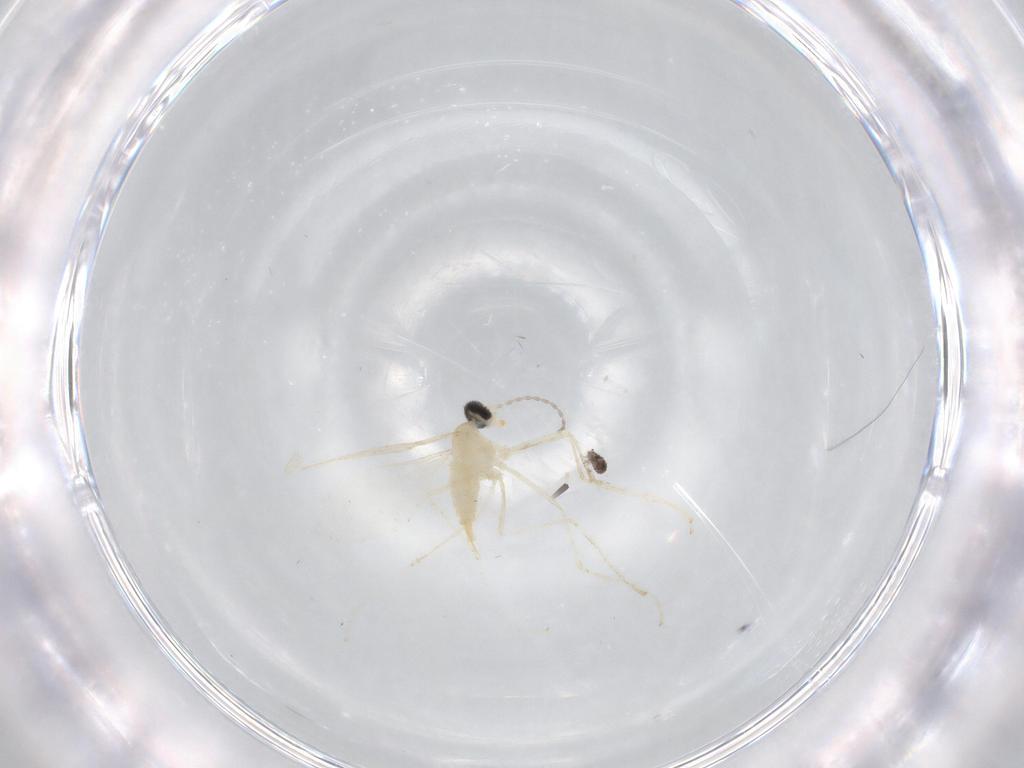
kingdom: Animalia
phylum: Arthropoda
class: Insecta
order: Diptera
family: Cecidomyiidae
